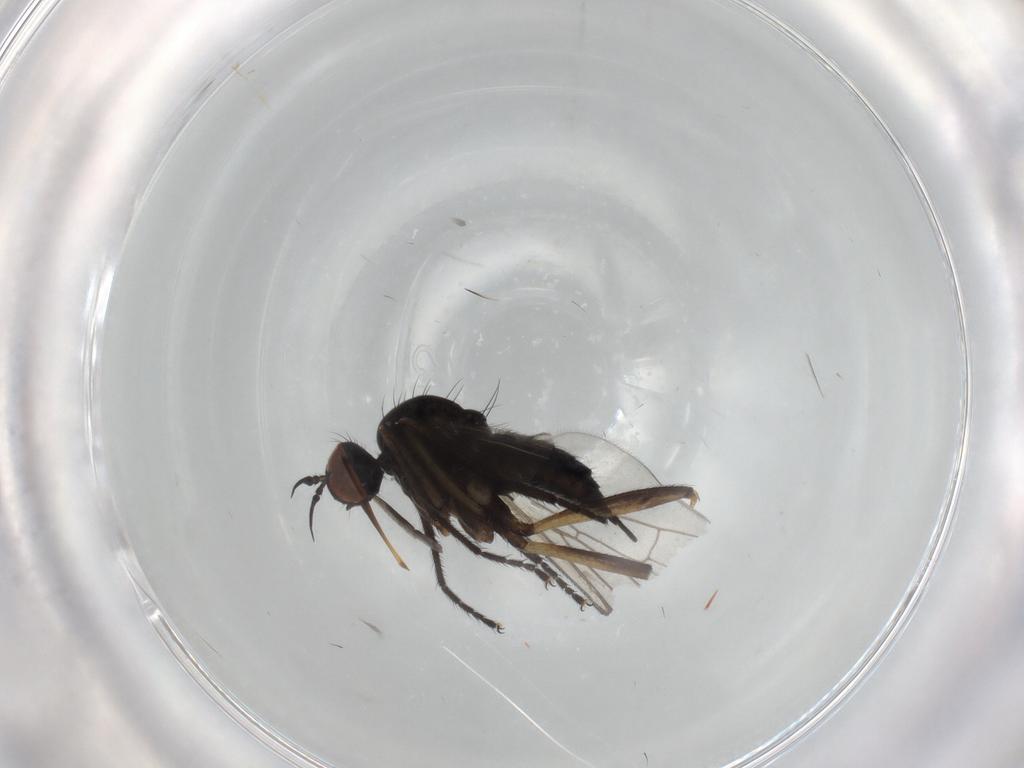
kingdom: Animalia
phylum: Arthropoda
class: Insecta
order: Diptera
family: Empididae
